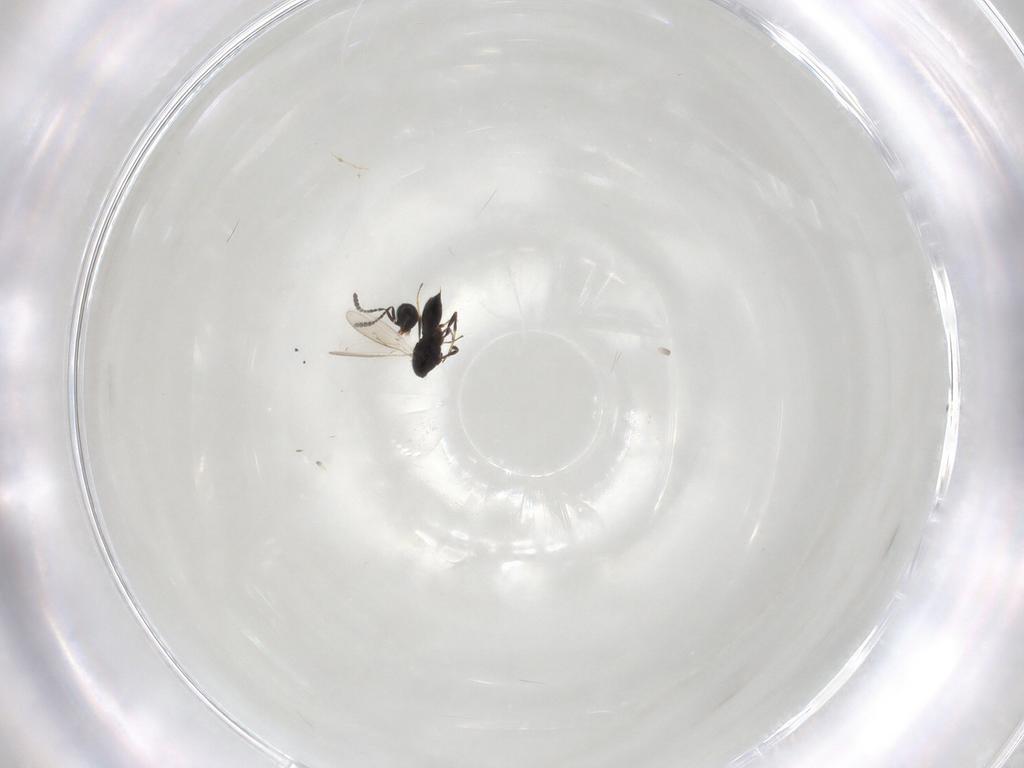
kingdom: Animalia
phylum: Arthropoda
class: Insecta
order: Hymenoptera
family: Scelionidae
